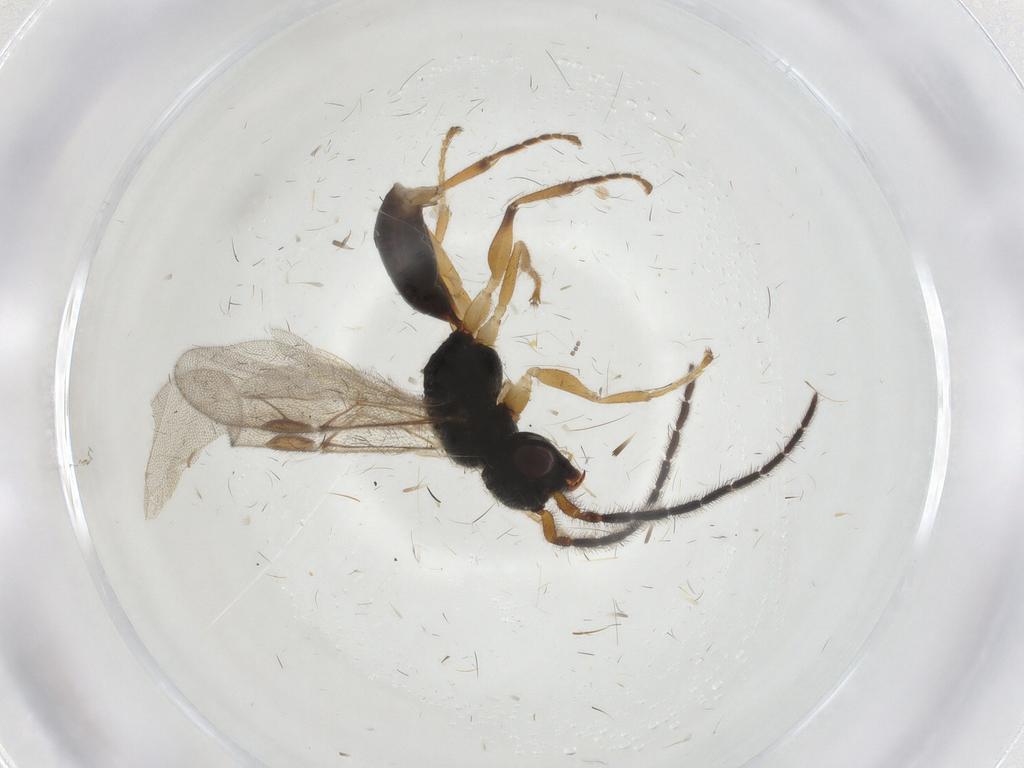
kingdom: Animalia
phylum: Arthropoda
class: Insecta
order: Hymenoptera
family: Dryinidae
